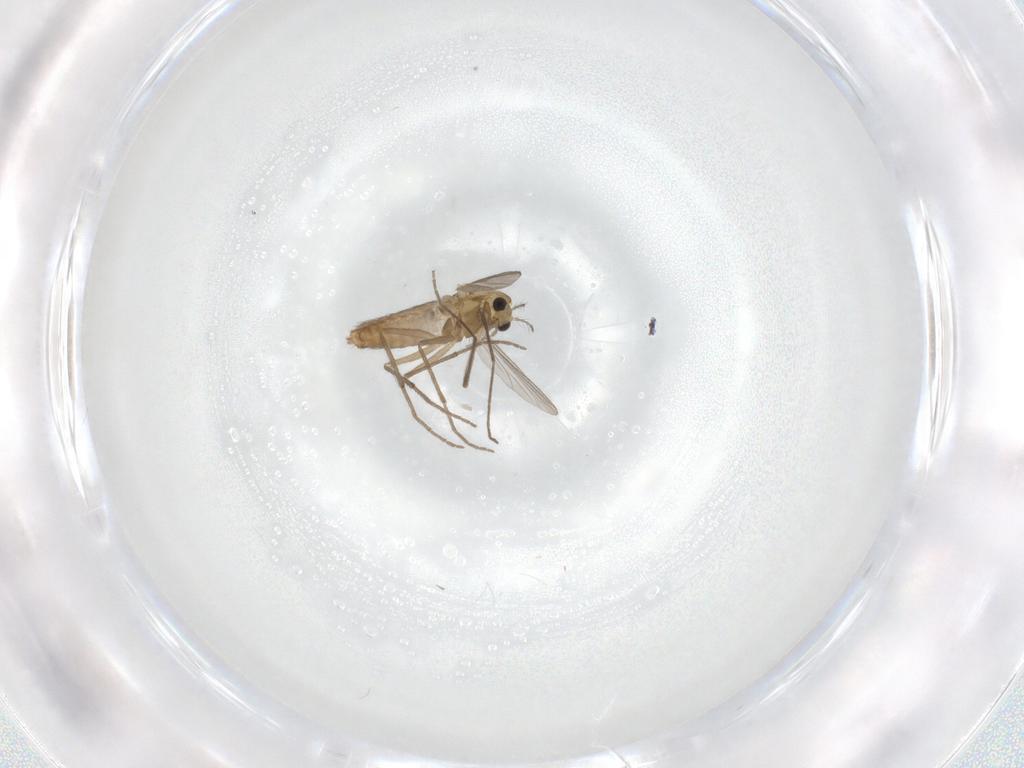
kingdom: Animalia
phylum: Arthropoda
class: Insecta
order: Diptera
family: Chironomidae
